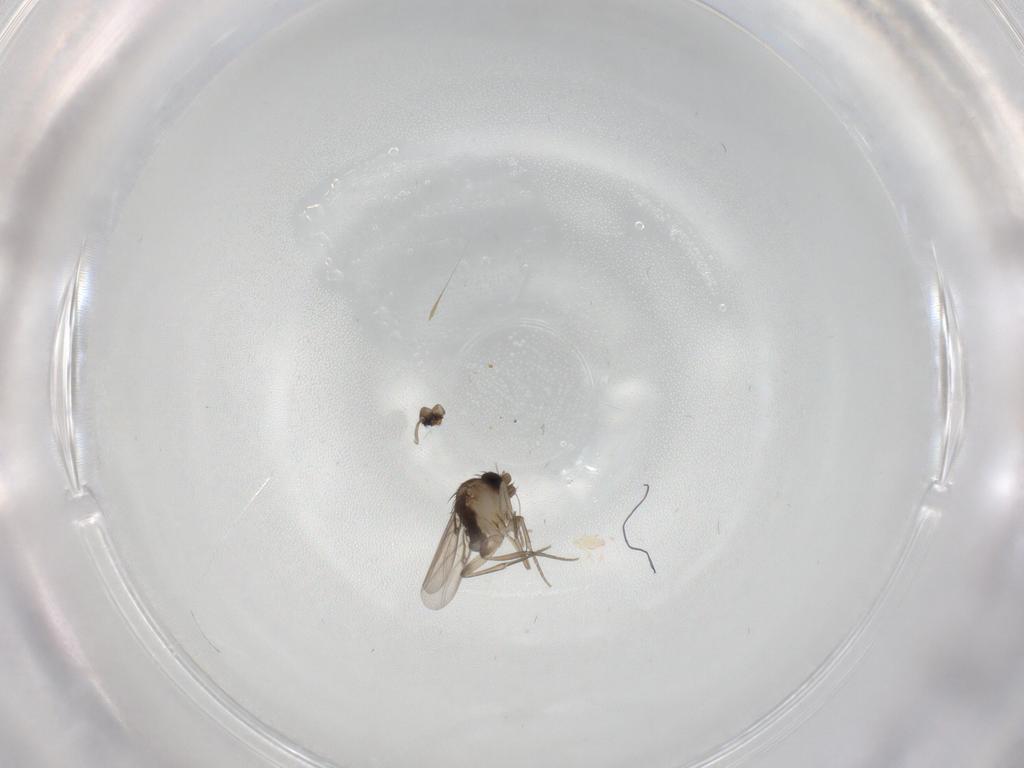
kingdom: Animalia
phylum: Arthropoda
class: Insecta
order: Diptera
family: Phoridae
